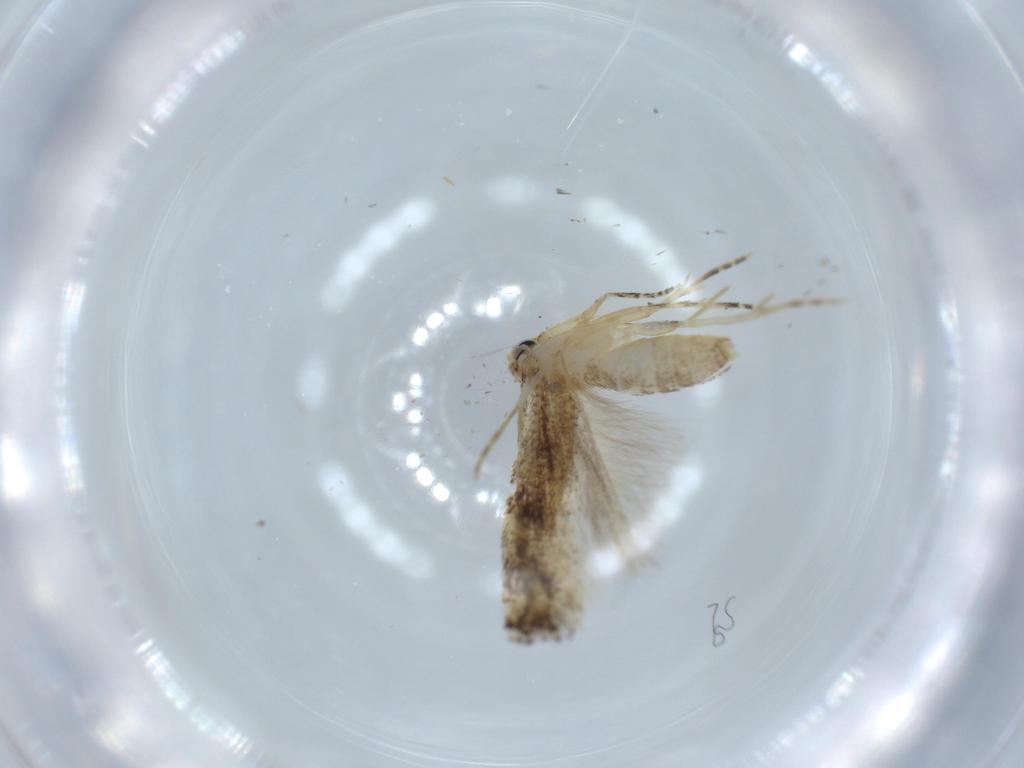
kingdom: Animalia
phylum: Arthropoda
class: Insecta
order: Lepidoptera
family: Bucculatricidae
